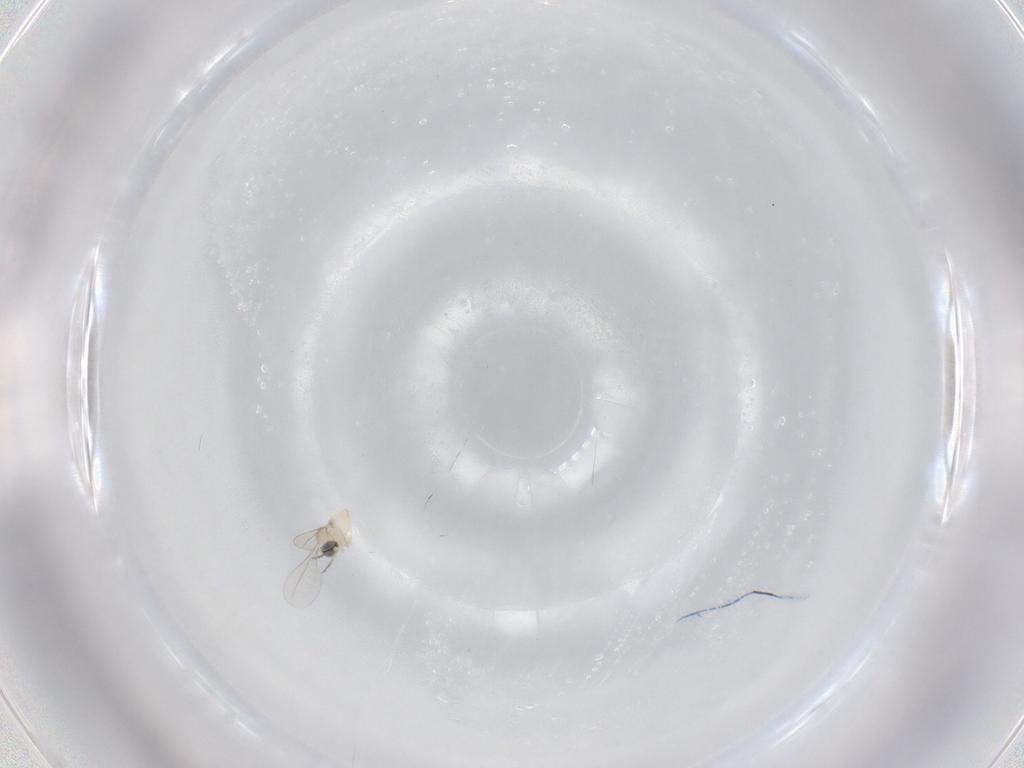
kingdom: Animalia
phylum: Arthropoda
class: Insecta
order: Diptera
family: Cecidomyiidae
